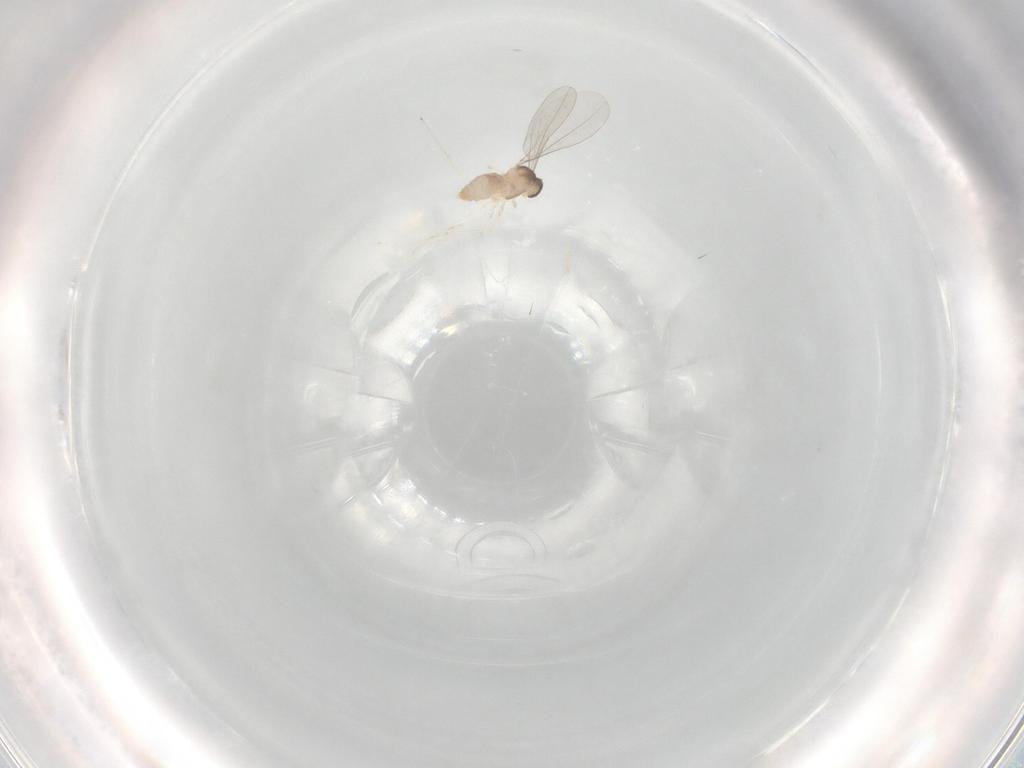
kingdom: Animalia
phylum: Arthropoda
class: Insecta
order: Diptera
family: Cecidomyiidae
